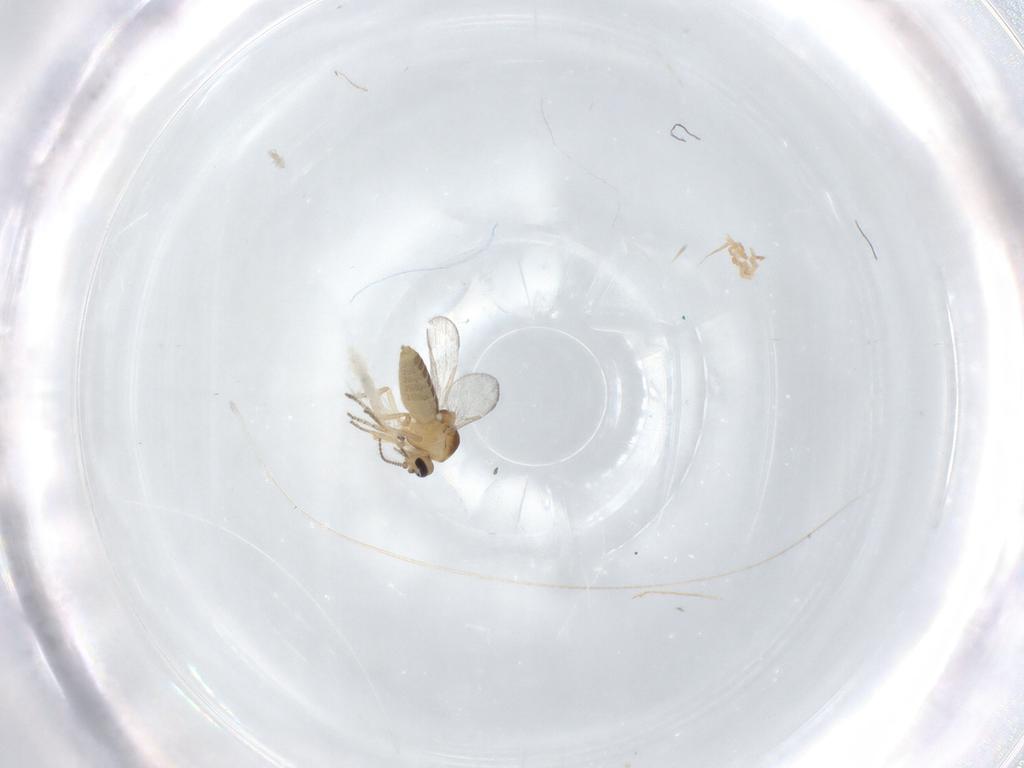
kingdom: Animalia
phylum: Arthropoda
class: Insecta
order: Diptera
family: Ceratopogonidae
